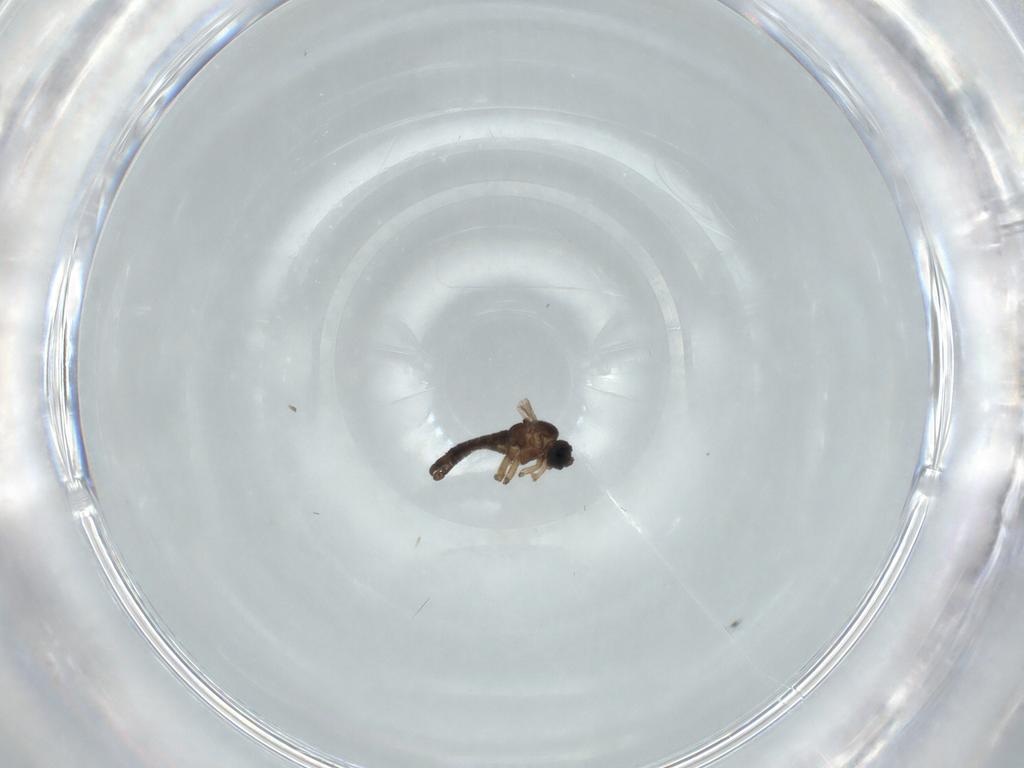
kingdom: Animalia
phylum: Arthropoda
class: Insecta
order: Diptera
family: Sciaridae
